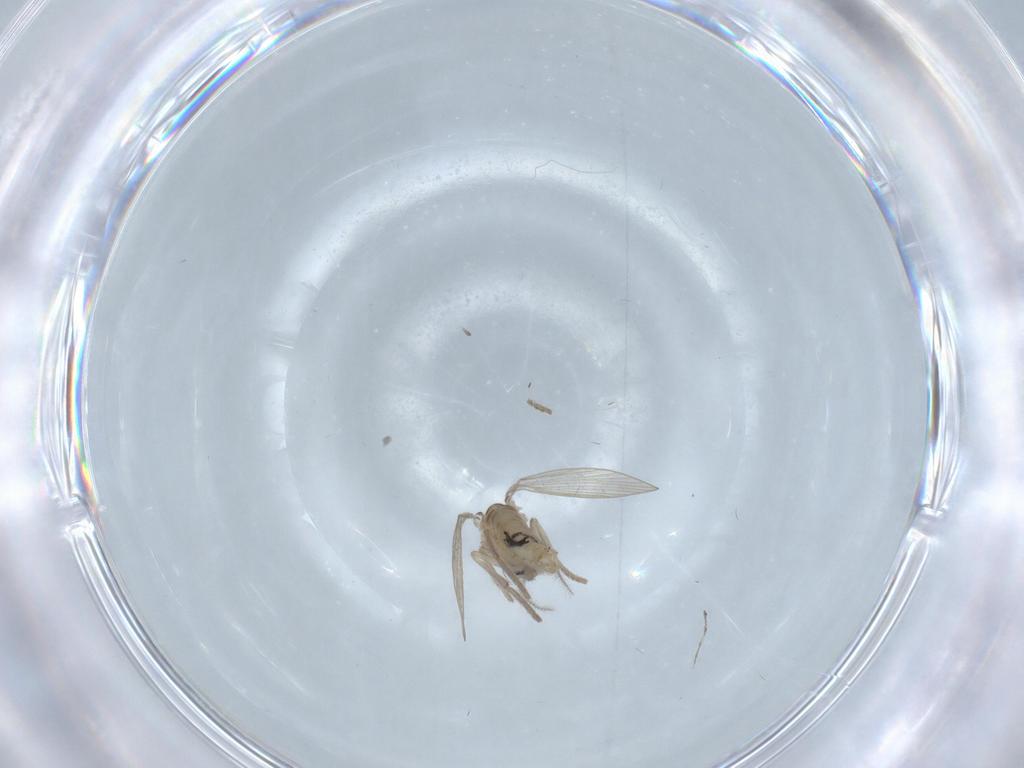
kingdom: Animalia
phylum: Arthropoda
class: Insecta
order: Diptera
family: Psychodidae
